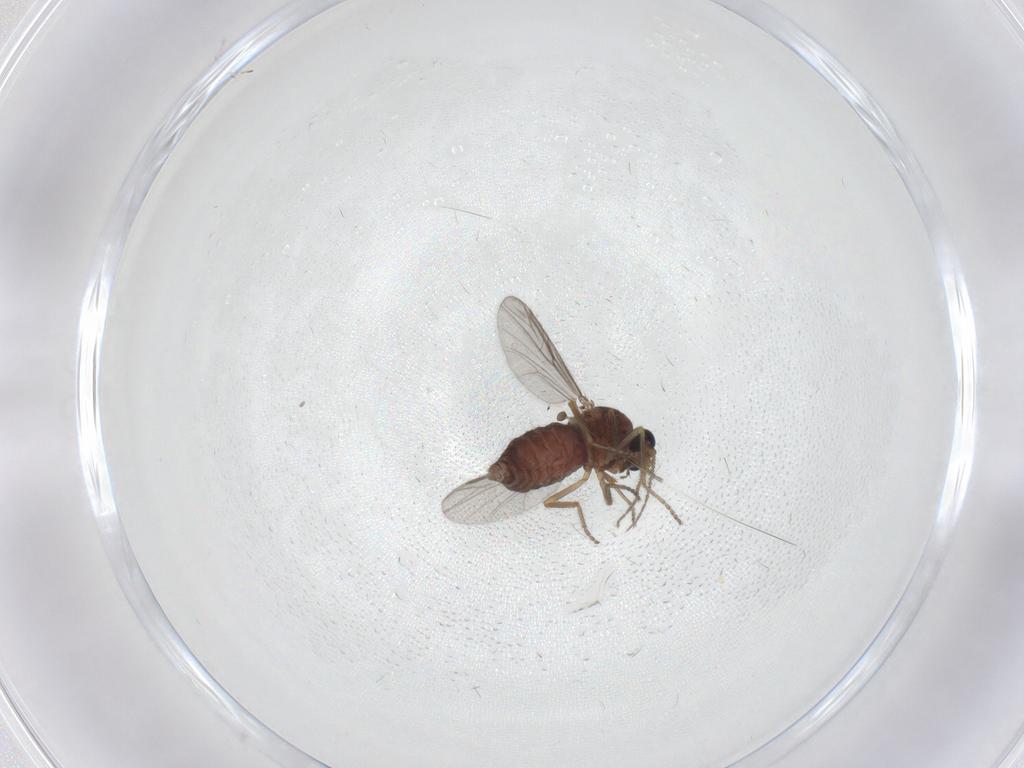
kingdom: Animalia
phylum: Arthropoda
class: Insecta
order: Diptera
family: Ceratopogonidae
